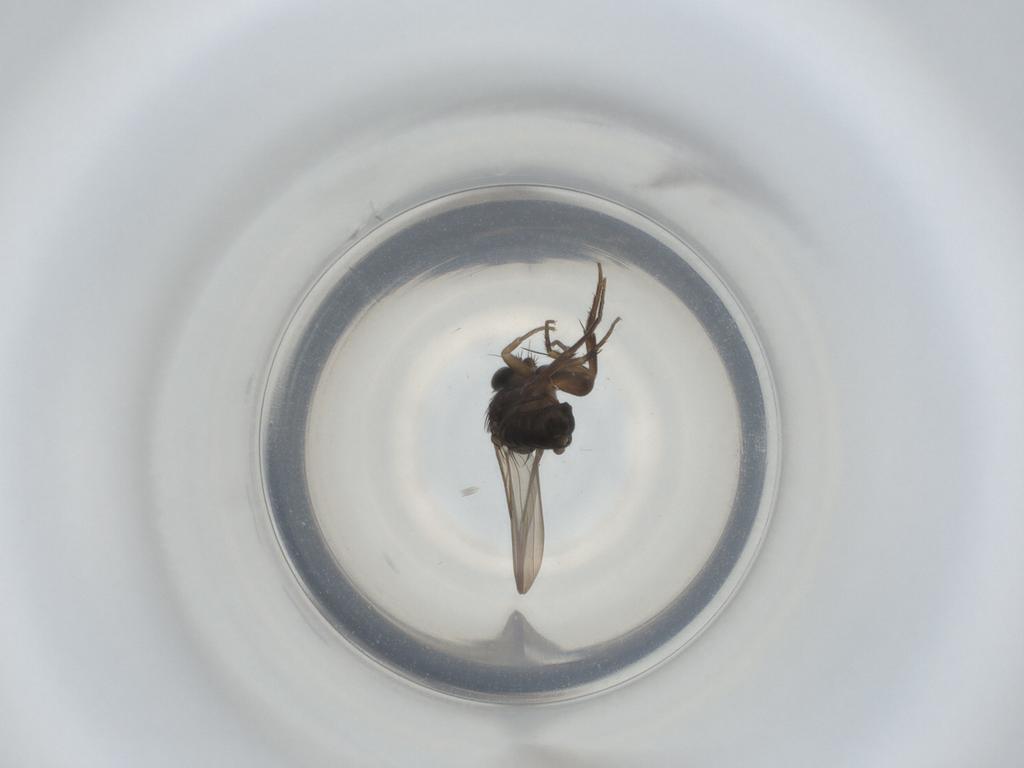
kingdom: Animalia
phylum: Arthropoda
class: Insecta
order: Diptera
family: Phoridae
